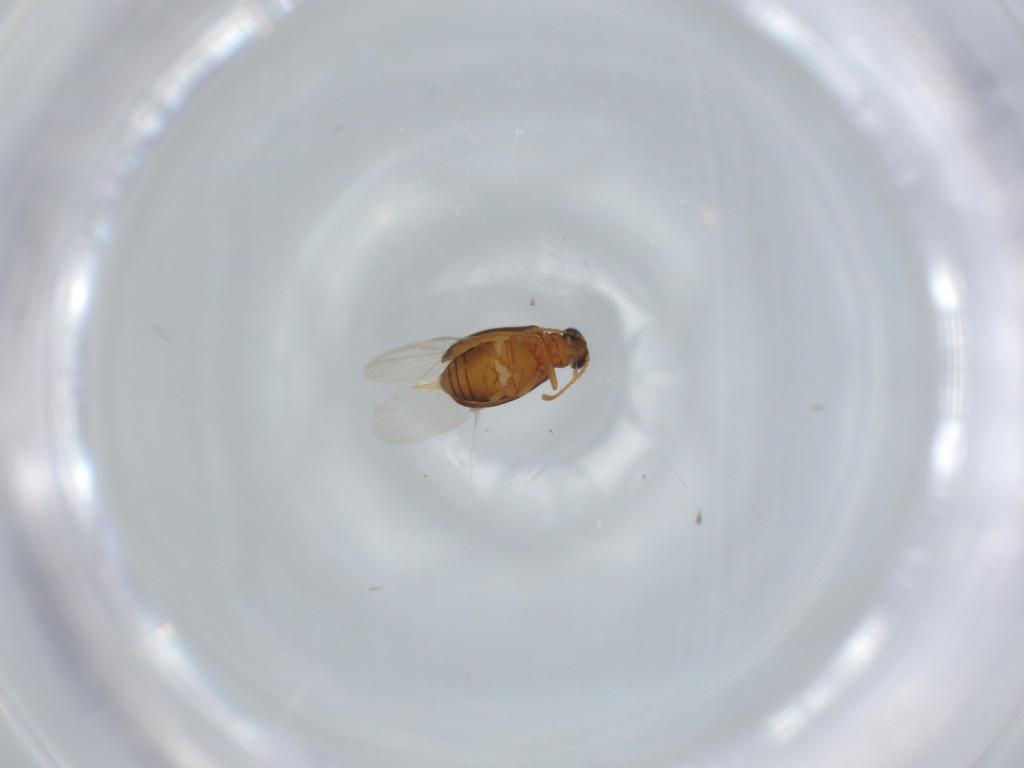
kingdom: Animalia
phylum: Arthropoda
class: Insecta
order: Coleoptera
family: Aderidae
